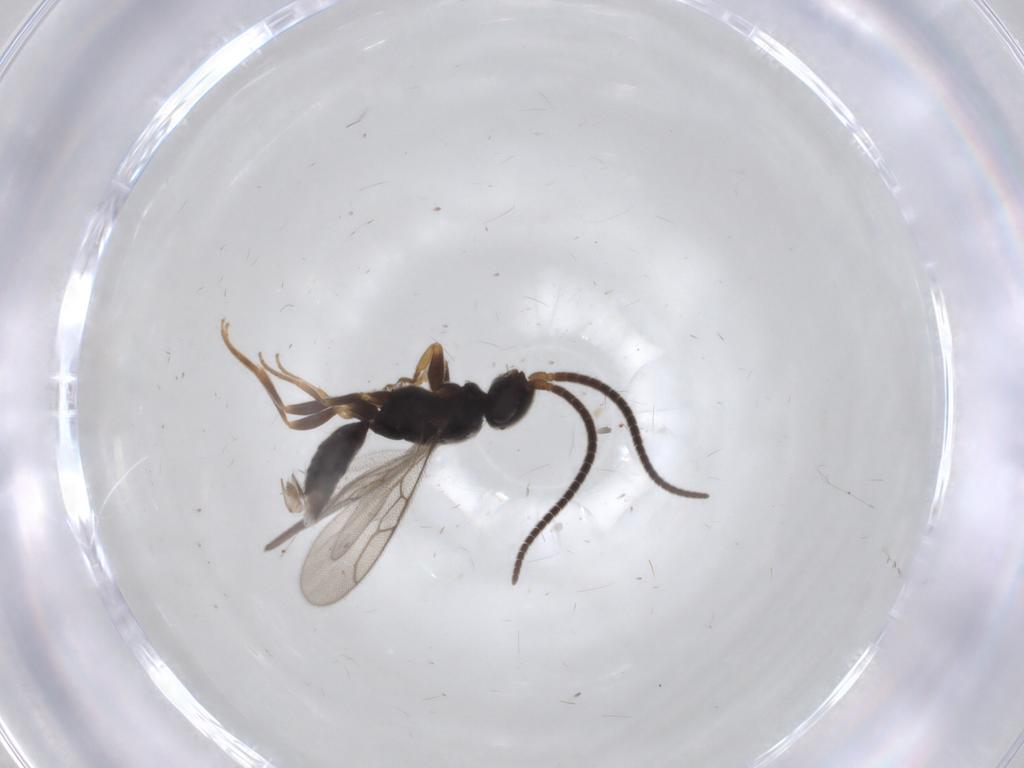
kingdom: Animalia
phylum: Arthropoda
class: Insecta
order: Hymenoptera
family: Sclerogibbidae
